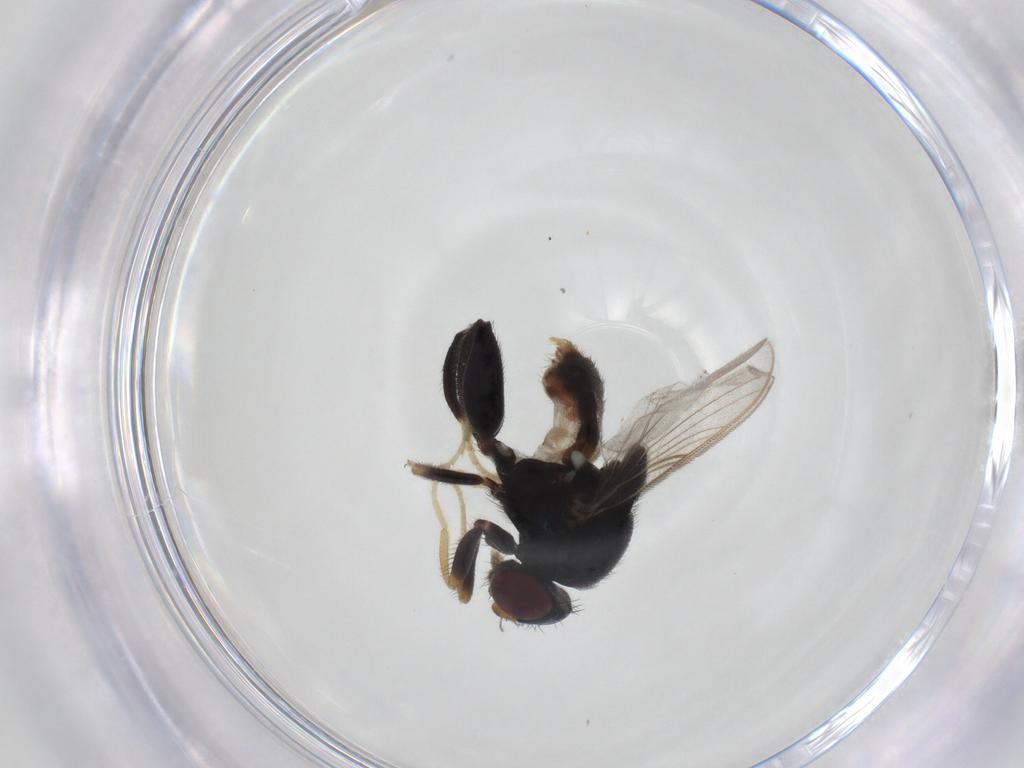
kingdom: Animalia
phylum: Arthropoda
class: Insecta
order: Diptera
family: Chloropidae
